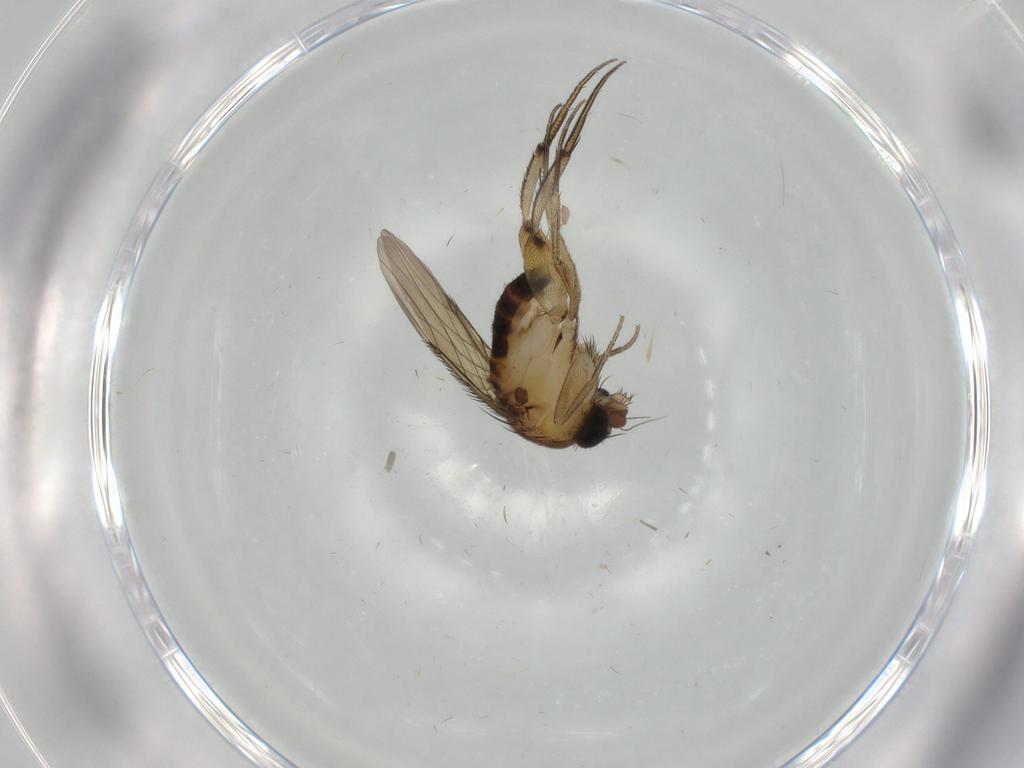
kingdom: Animalia
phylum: Arthropoda
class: Insecta
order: Diptera
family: Phoridae
